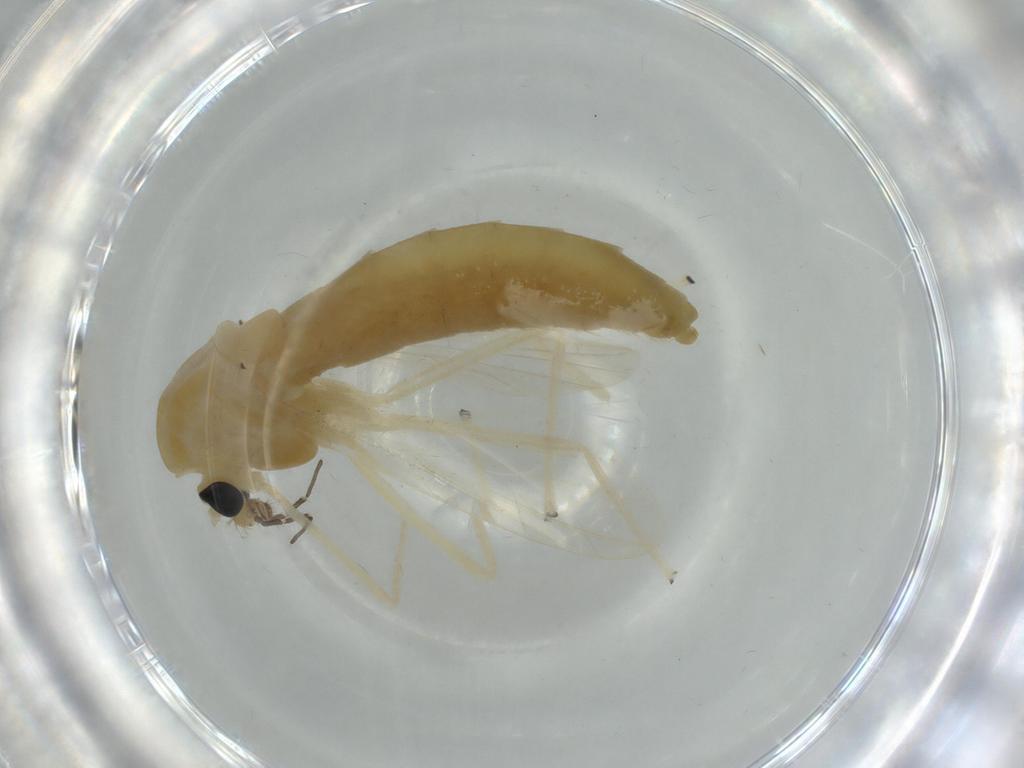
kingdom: Animalia
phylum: Arthropoda
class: Insecta
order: Diptera
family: Chironomidae
